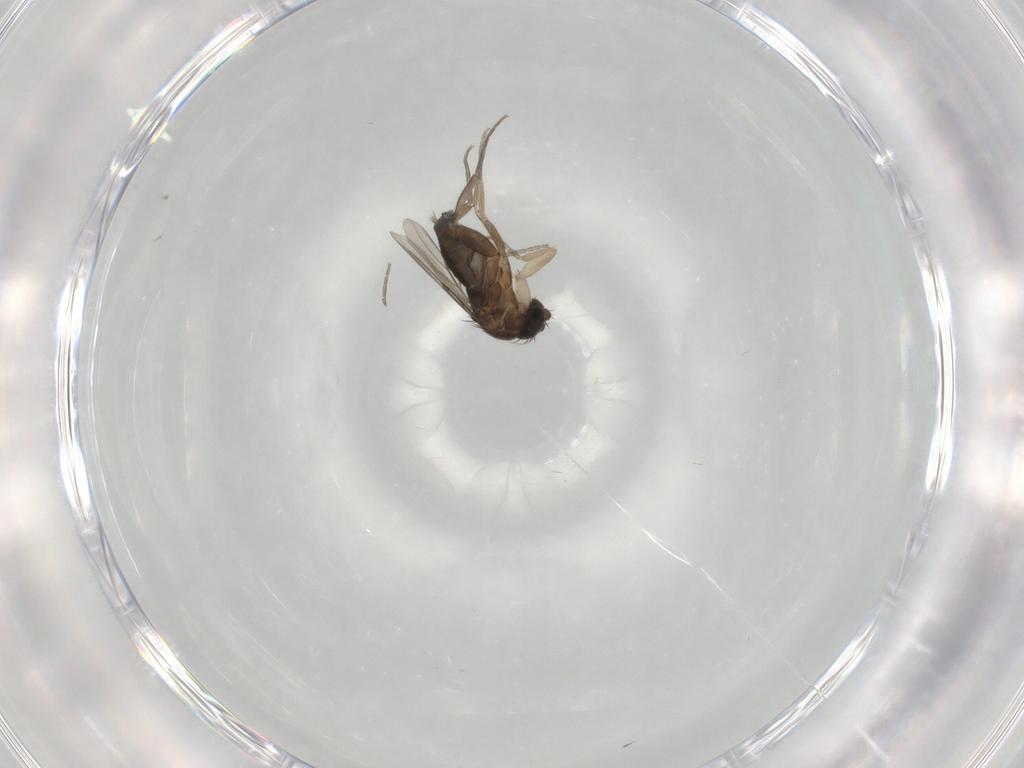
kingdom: Animalia
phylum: Arthropoda
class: Insecta
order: Diptera
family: Phoridae
